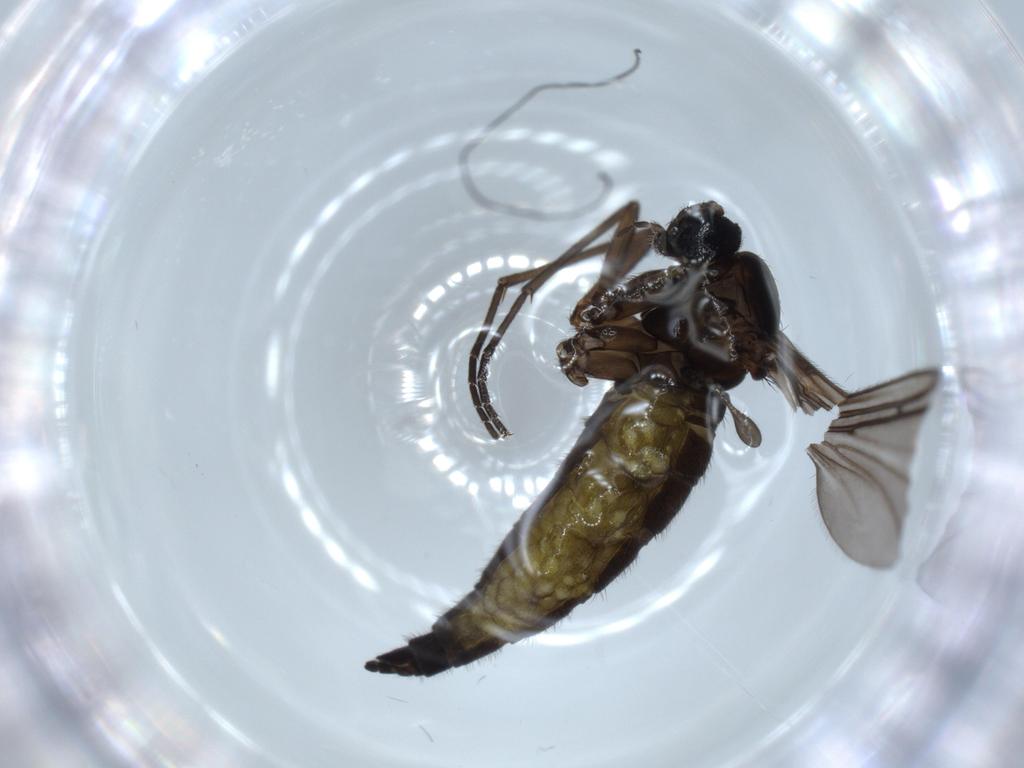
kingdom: Animalia
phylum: Arthropoda
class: Insecta
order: Diptera
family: Sciaridae
